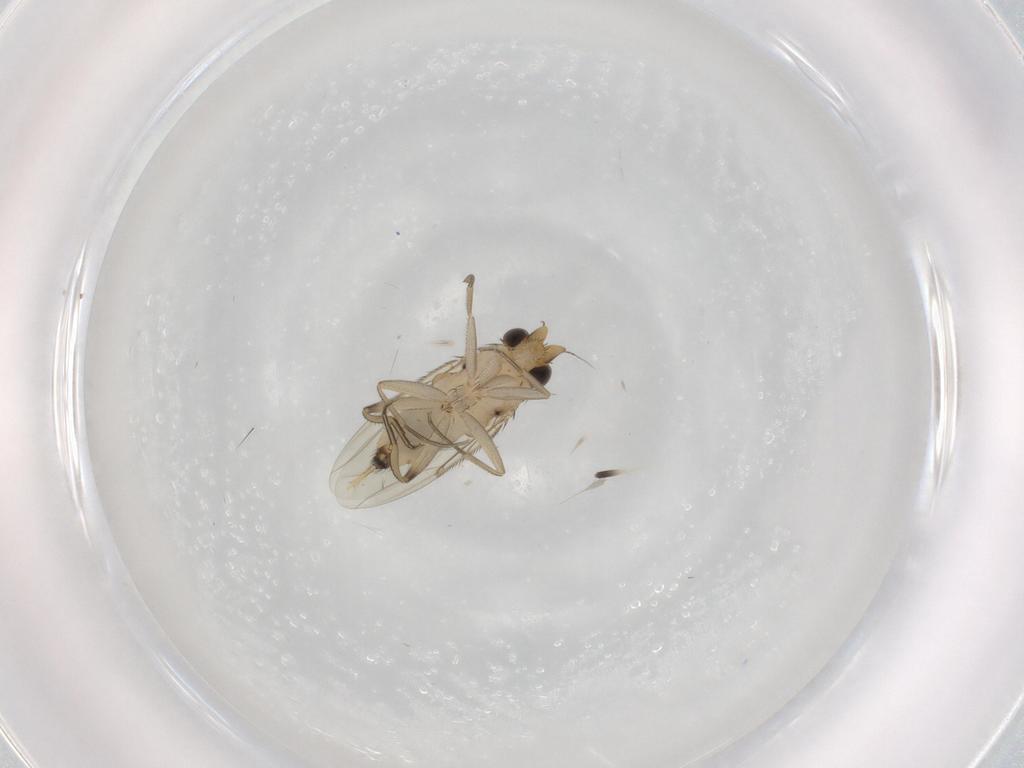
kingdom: Animalia
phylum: Arthropoda
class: Insecta
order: Diptera
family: Phoridae
